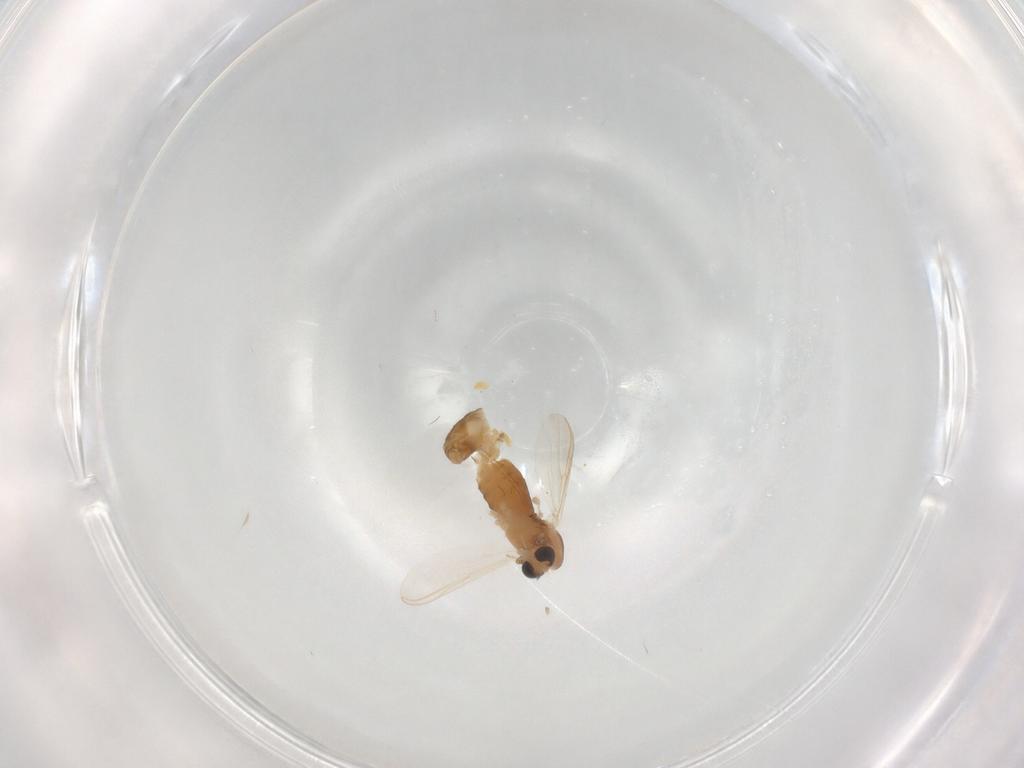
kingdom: Animalia
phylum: Arthropoda
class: Insecta
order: Diptera
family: Chironomidae
